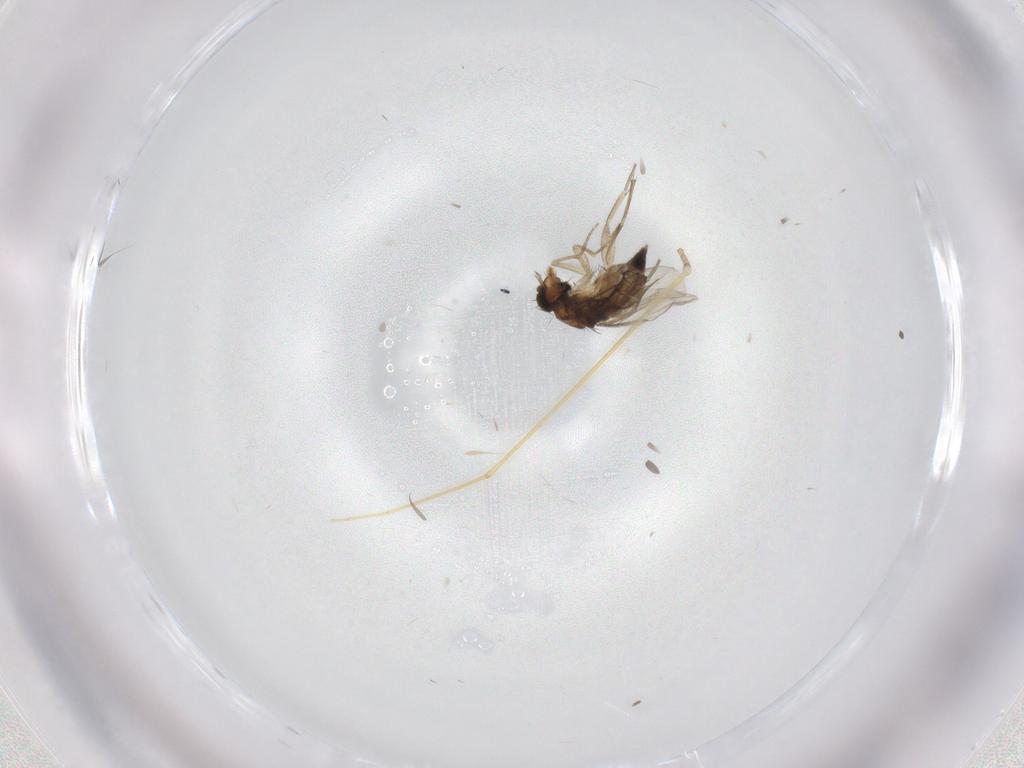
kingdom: Animalia
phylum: Arthropoda
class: Insecta
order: Diptera
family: Limoniidae
